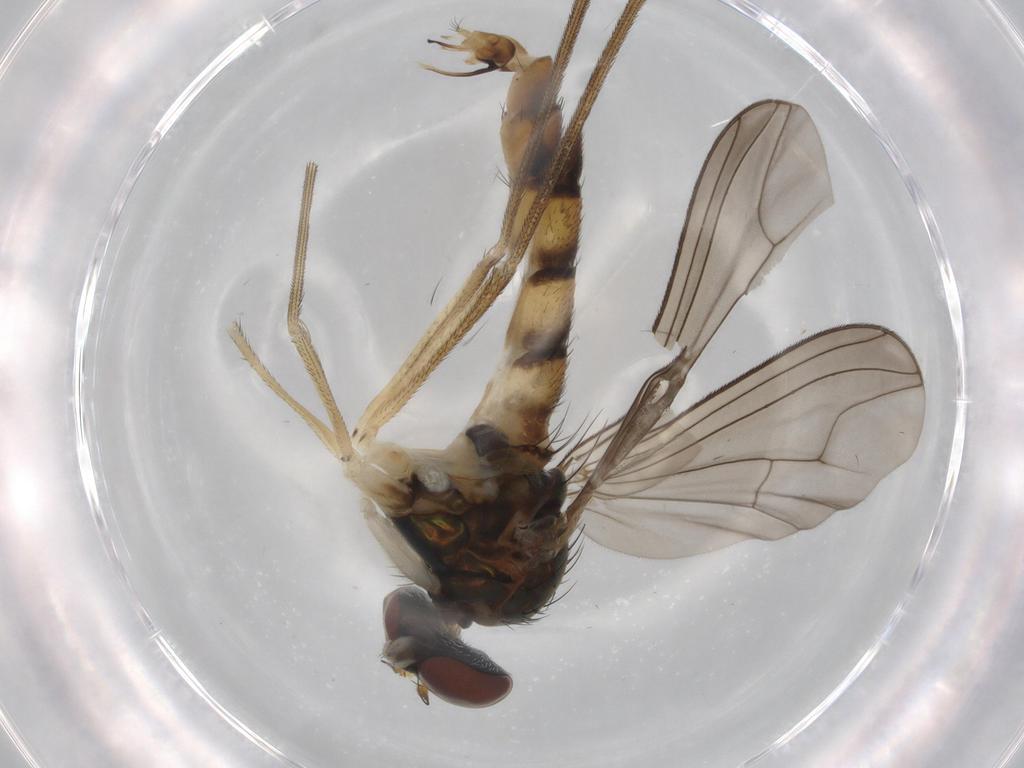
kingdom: Animalia
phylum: Arthropoda
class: Insecta
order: Diptera
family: Dolichopodidae
